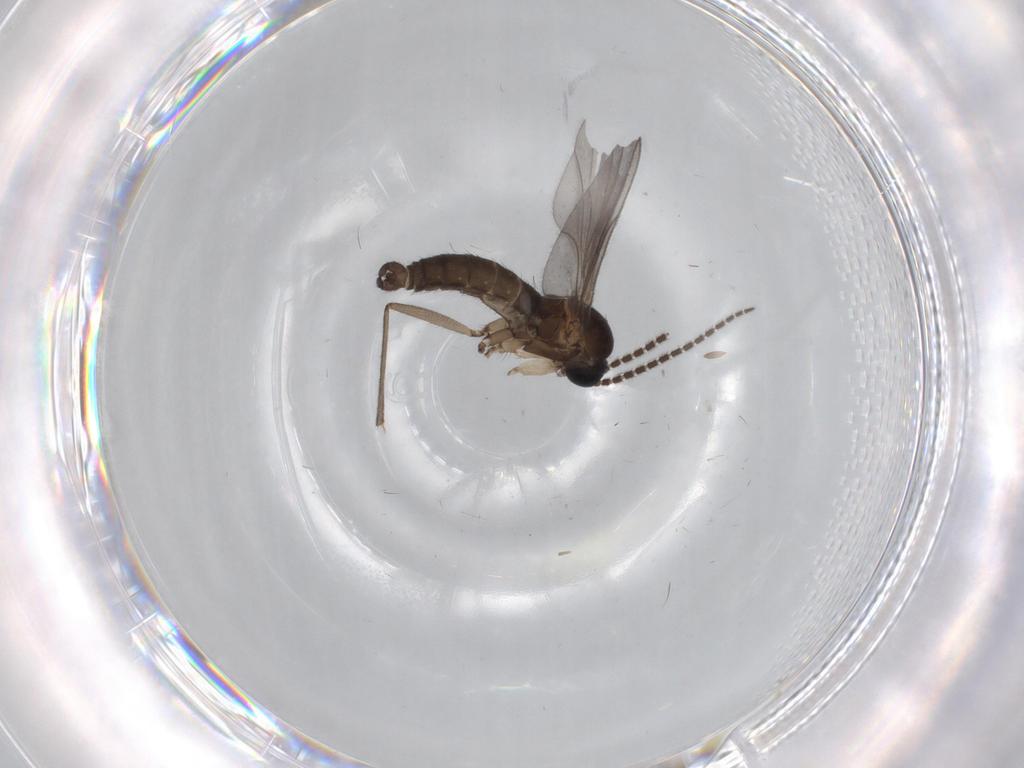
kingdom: Animalia
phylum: Arthropoda
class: Insecta
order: Diptera
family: Sciaridae
